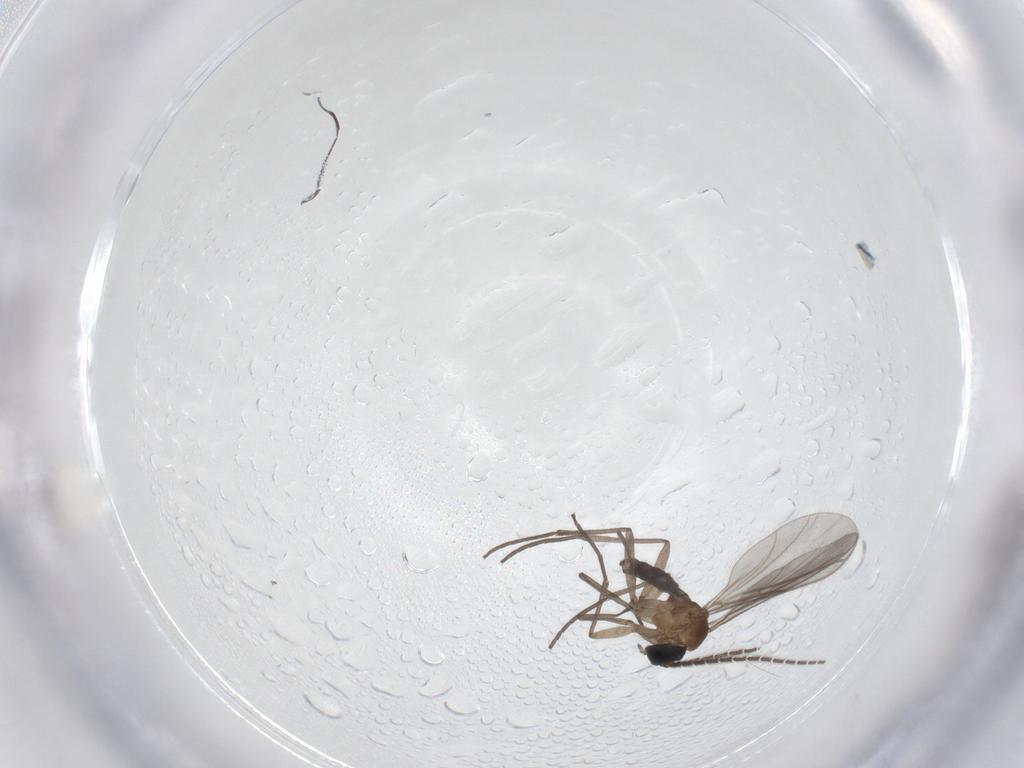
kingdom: Animalia
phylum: Arthropoda
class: Insecta
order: Diptera
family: Sciaridae
